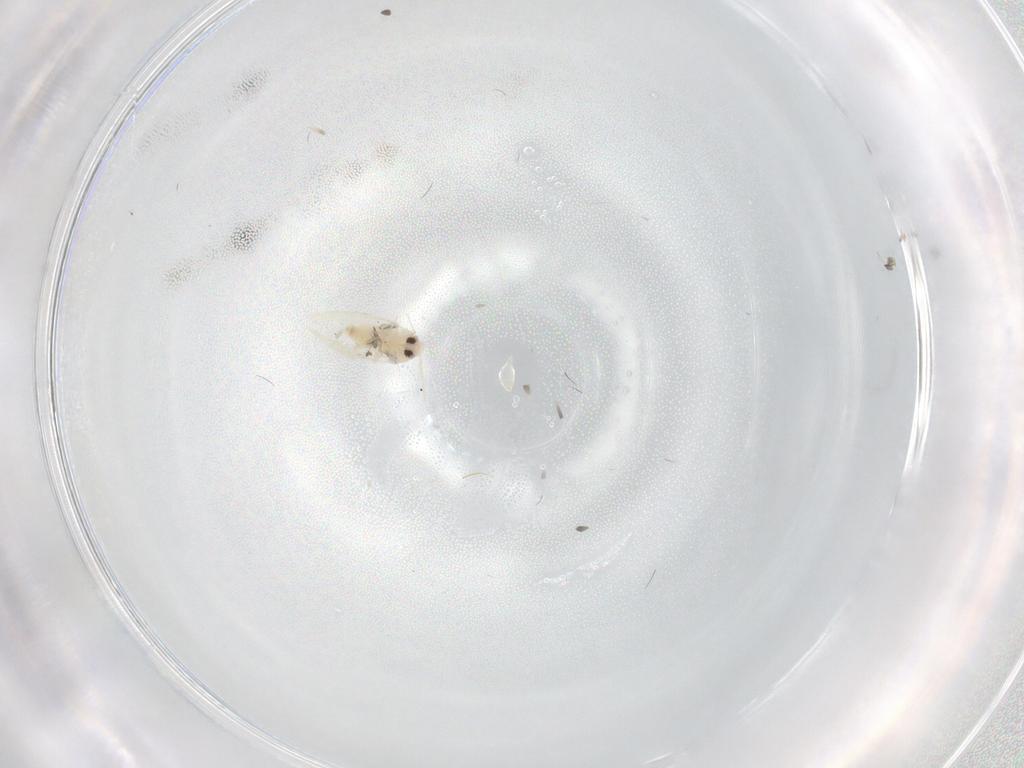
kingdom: Animalia
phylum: Arthropoda
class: Insecta
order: Hemiptera
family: Aleyrodidae
